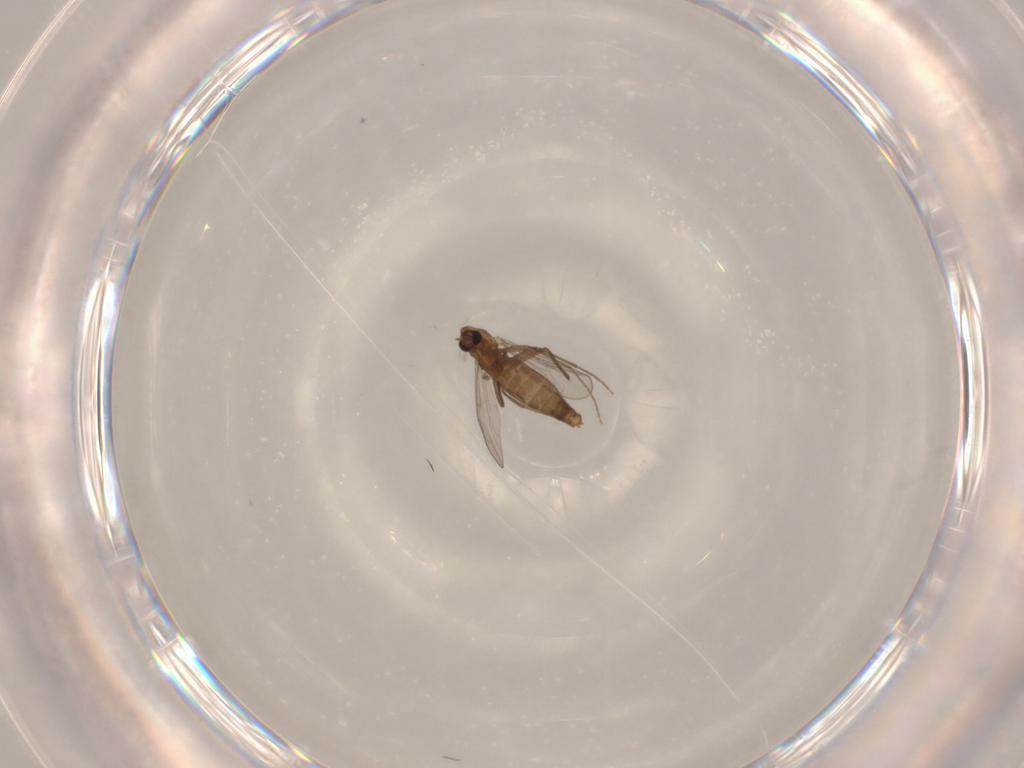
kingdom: Animalia
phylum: Arthropoda
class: Insecta
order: Diptera
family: Chironomidae
